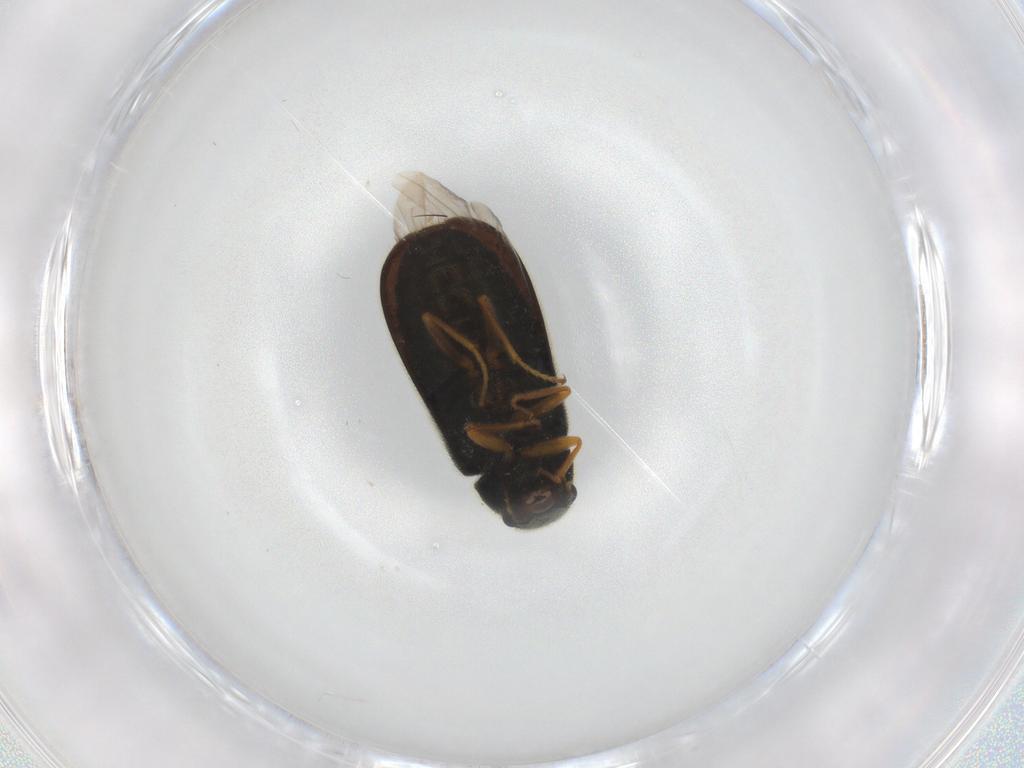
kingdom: Animalia
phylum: Arthropoda
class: Insecta
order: Coleoptera
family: Melyridae
